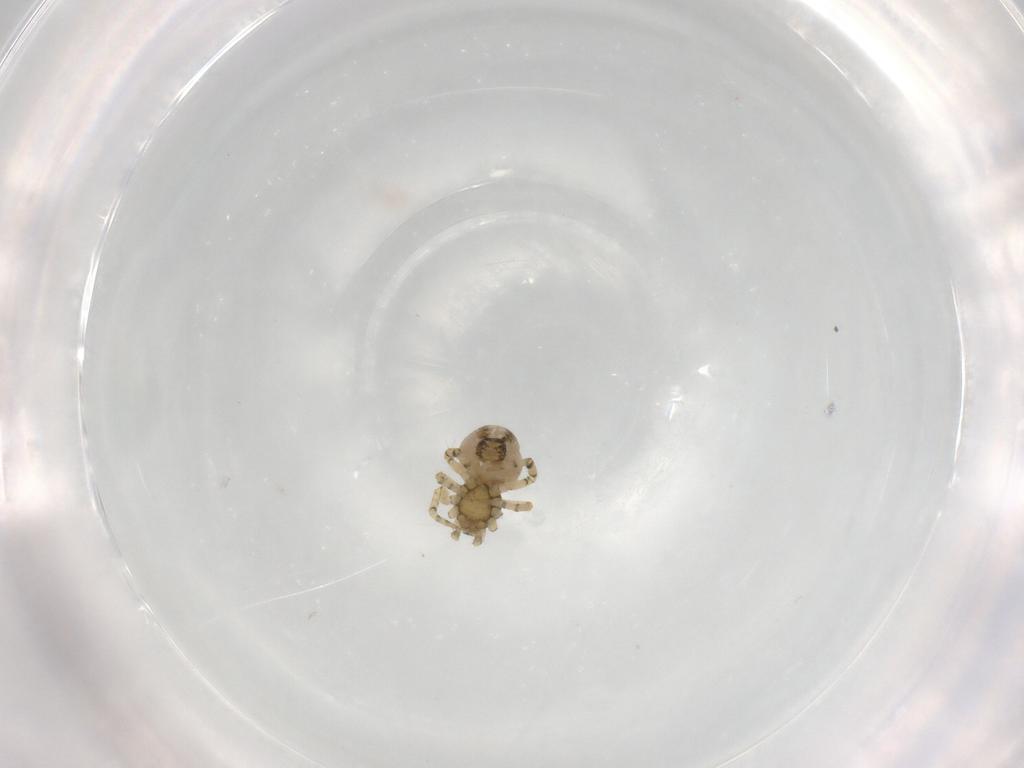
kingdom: Animalia
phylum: Arthropoda
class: Arachnida
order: Araneae
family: Theridiidae
